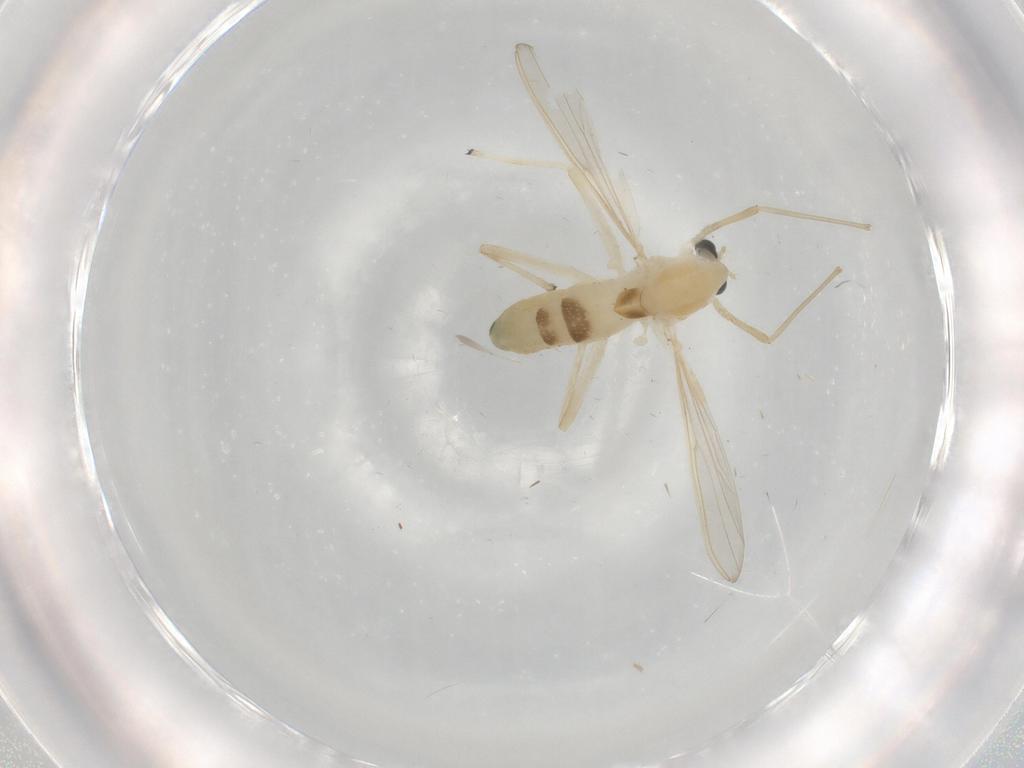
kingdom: Animalia
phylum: Arthropoda
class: Insecta
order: Diptera
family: Chironomidae
